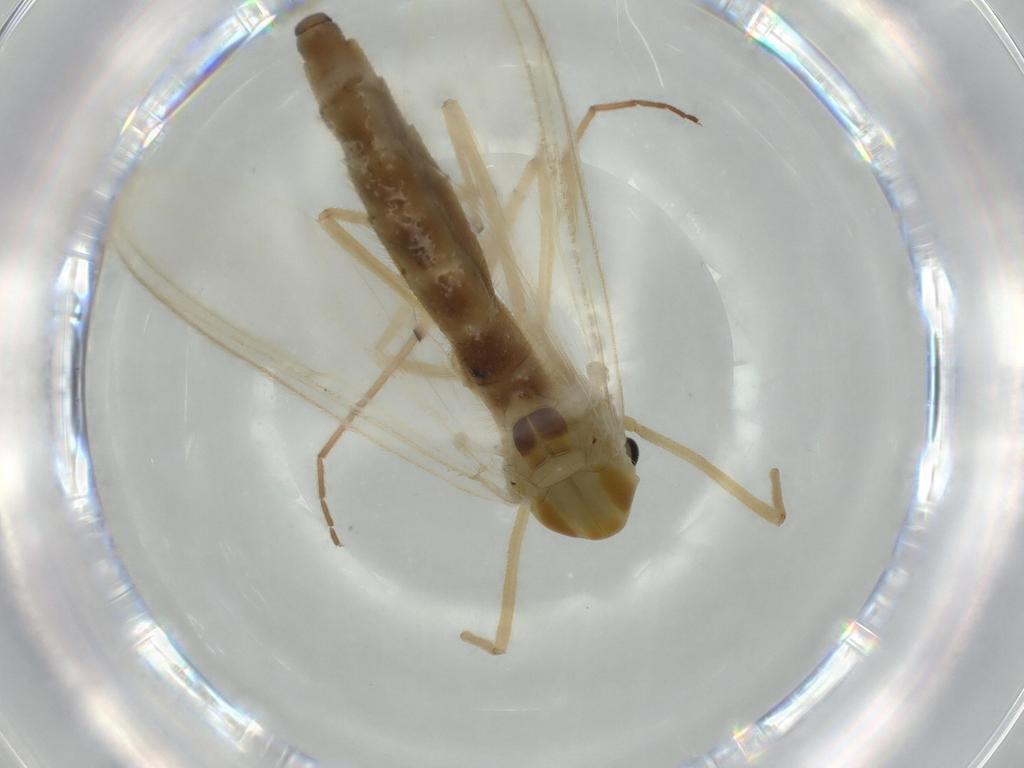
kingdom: Animalia
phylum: Arthropoda
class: Insecta
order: Diptera
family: Chironomidae
